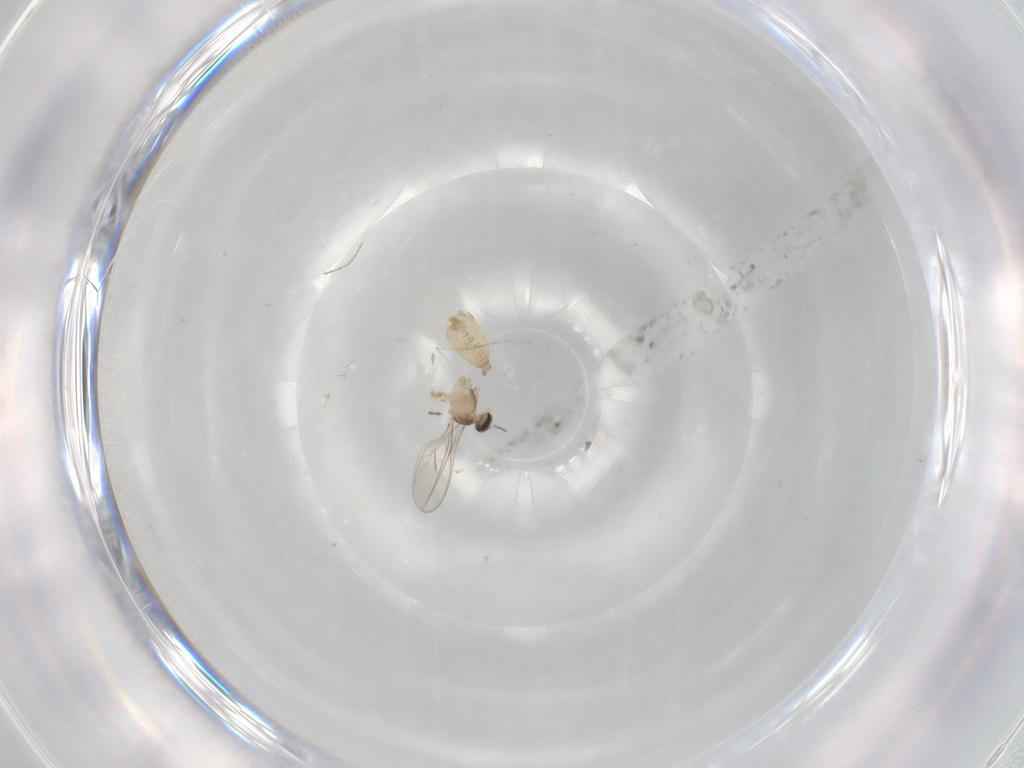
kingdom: Animalia
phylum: Arthropoda
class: Insecta
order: Diptera
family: Cecidomyiidae
